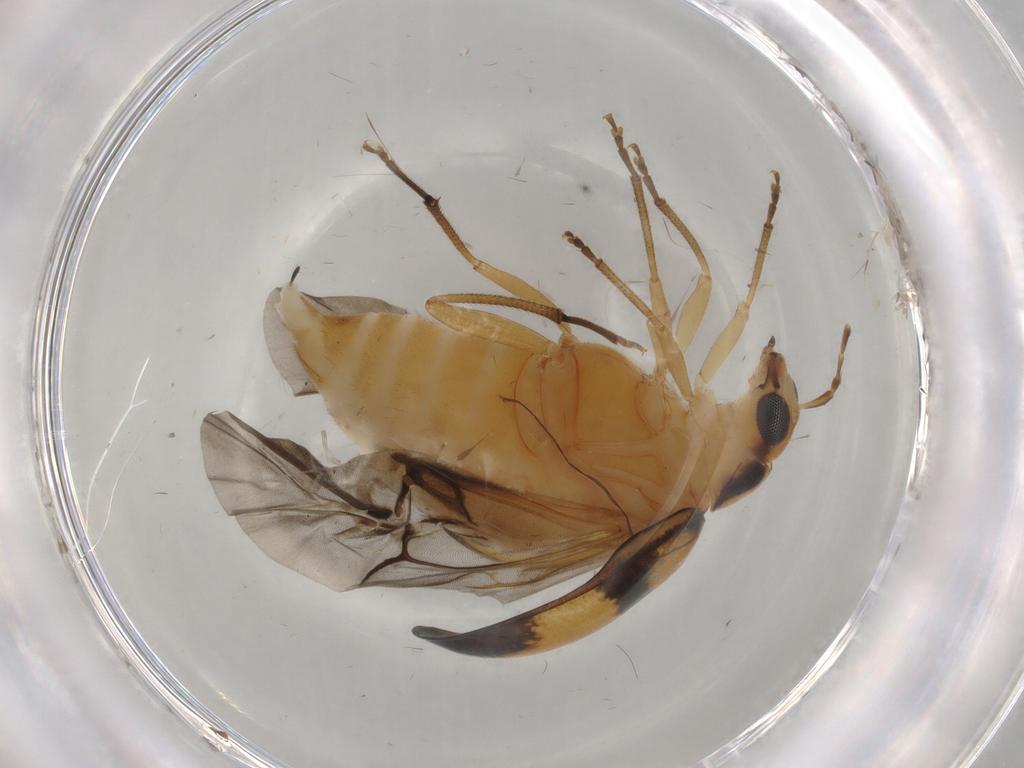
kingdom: Animalia
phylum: Arthropoda
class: Insecta
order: Diptera
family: Cecidomyiidae
